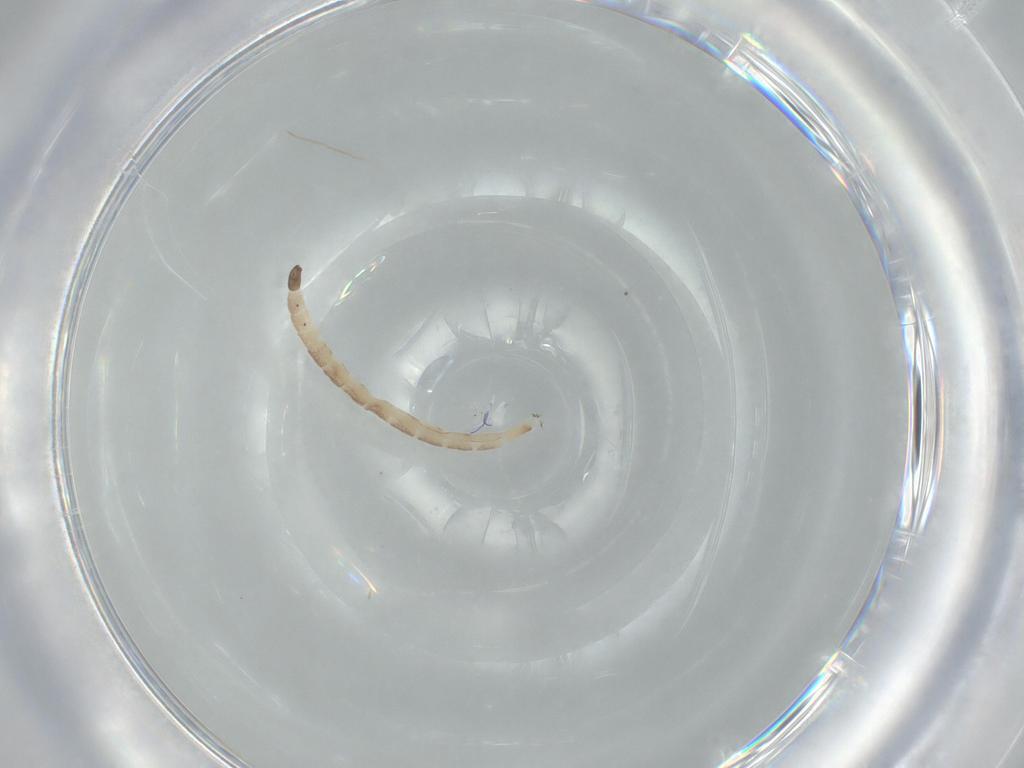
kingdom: Animalia
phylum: Arthropoda
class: Insecta
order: Diptera
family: Ceratopogonidae
